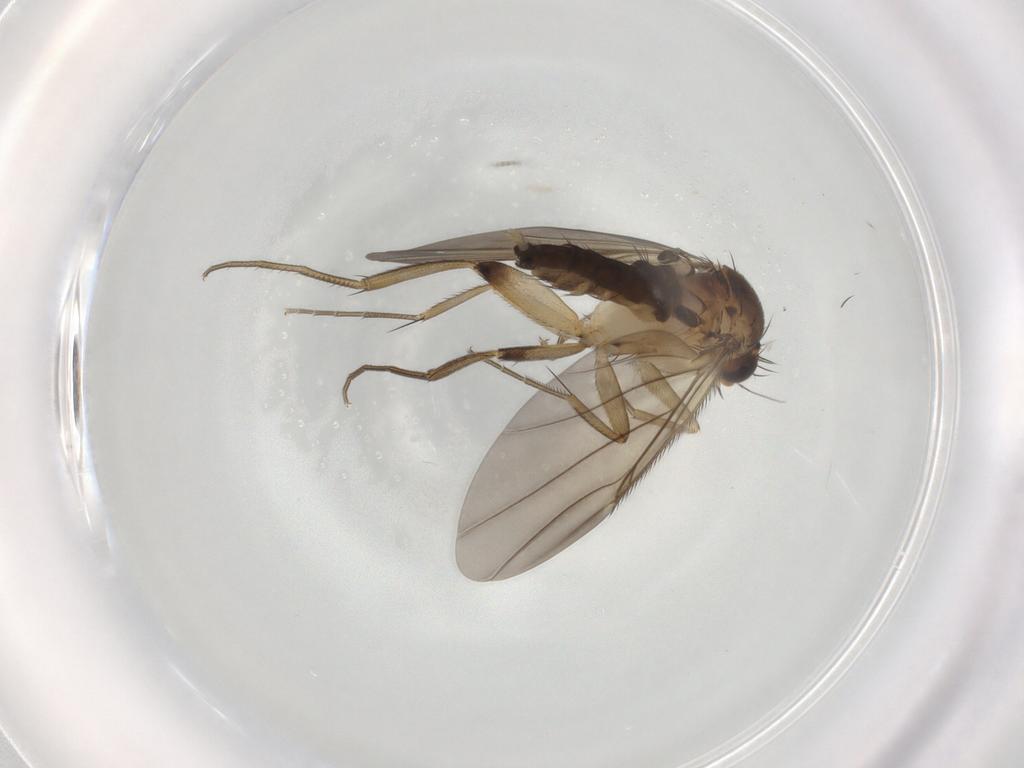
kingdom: Animalia
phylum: Arthropoda
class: Insecta
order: Diptera
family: Phoridae
